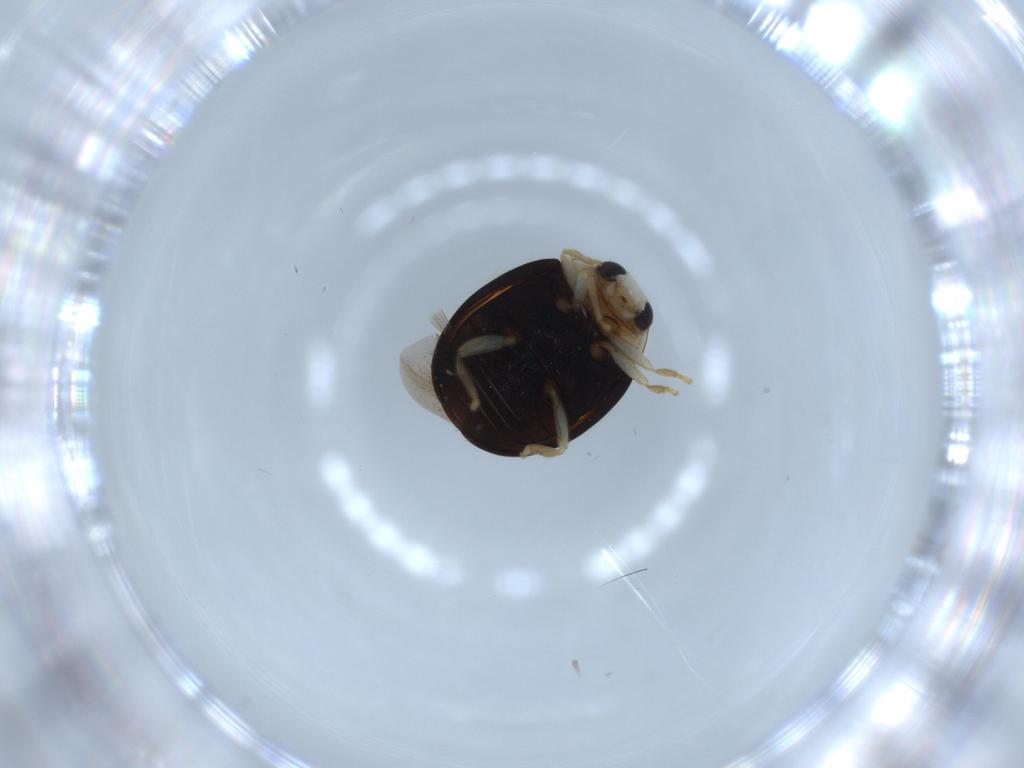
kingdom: Animalia
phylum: Arthropoda
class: Insecta
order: Coleoptera
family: Coccinellidae
